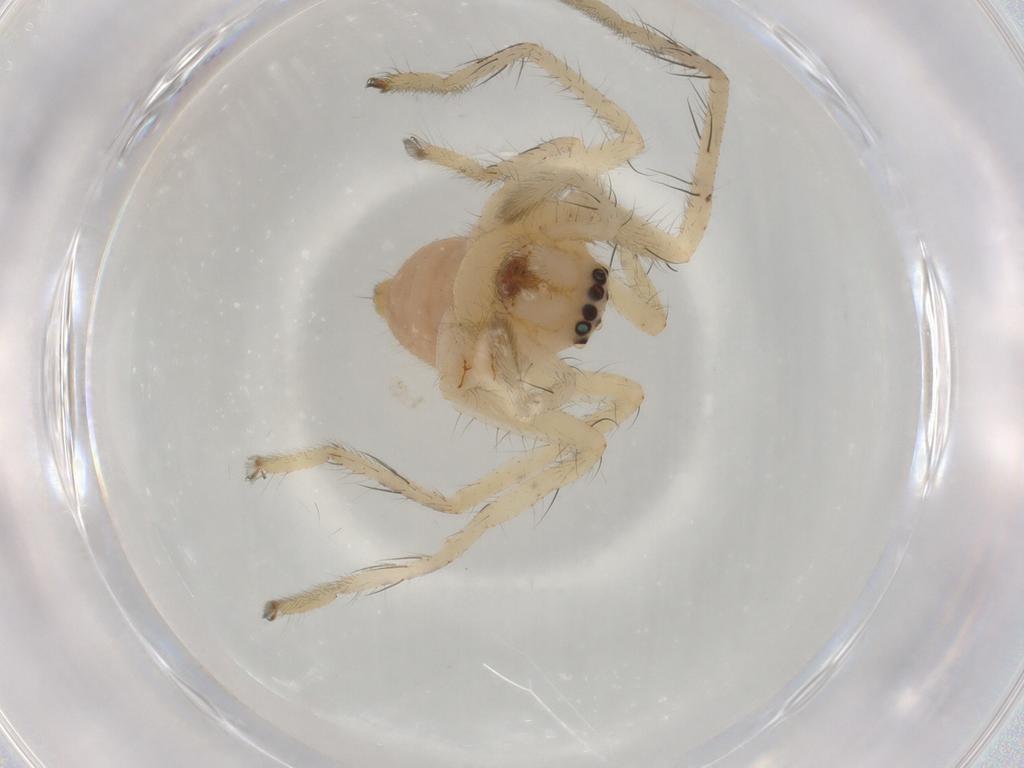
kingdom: Animalia
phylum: Arthropoda
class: Arachnida
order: Araneae
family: Sparassidae
